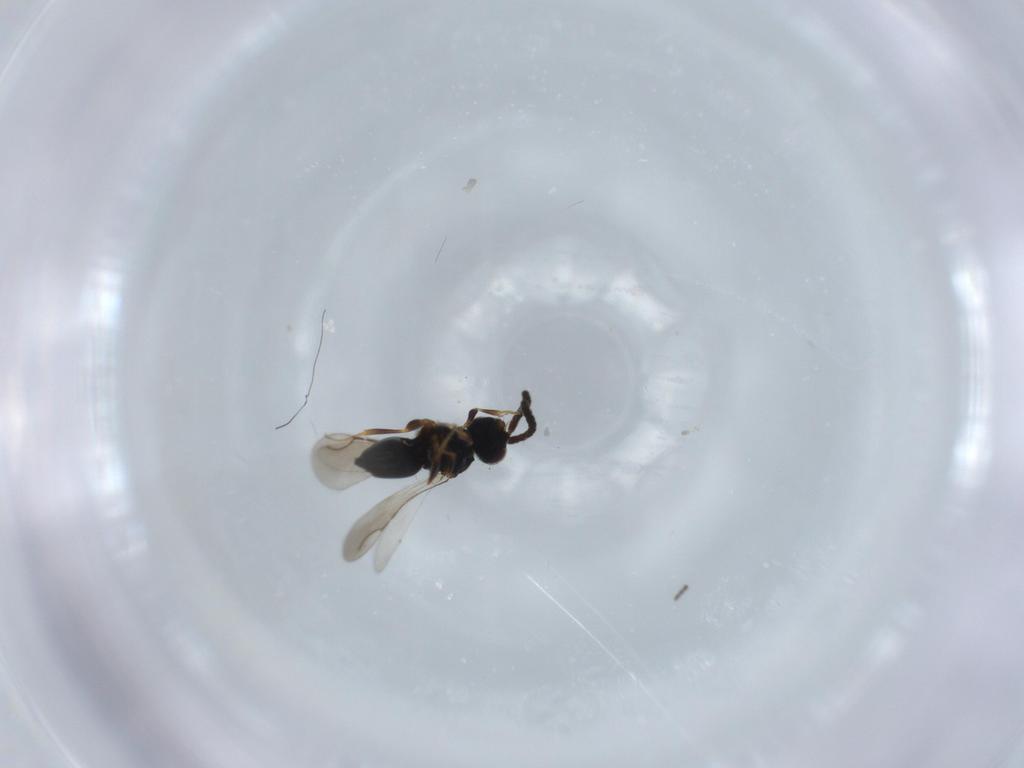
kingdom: Animalia
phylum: Arthropoda
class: Insecta
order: Hymenoptera
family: Ceraphronidae
